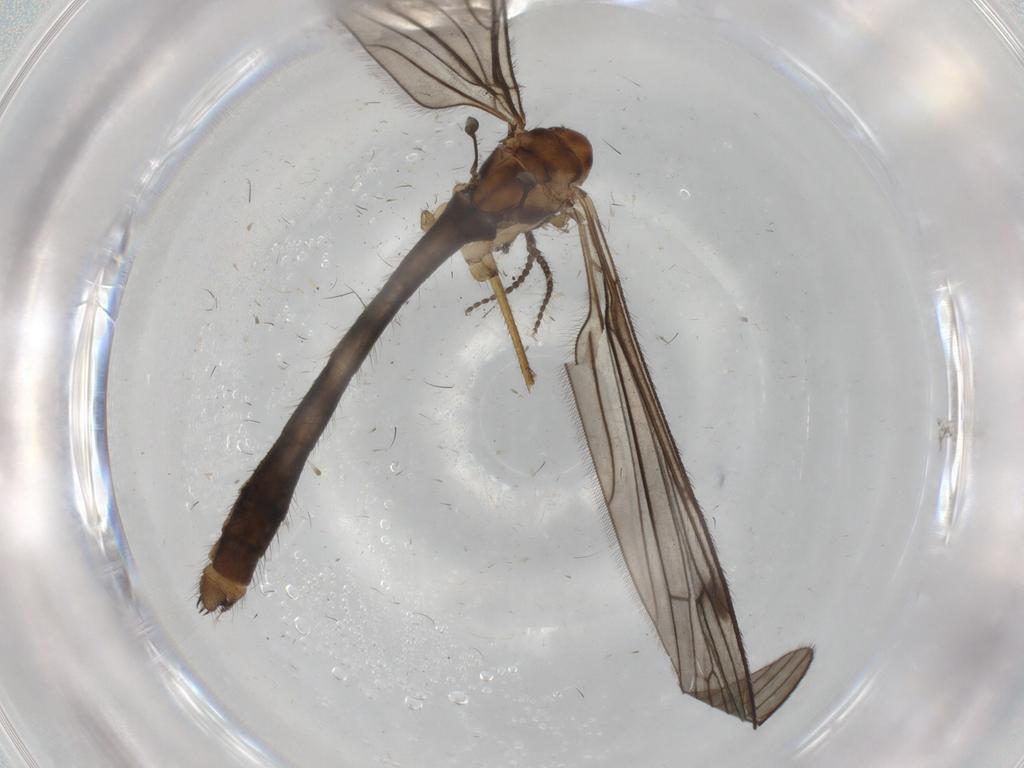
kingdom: Animalia
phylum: Arthropoda
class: Insecta
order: Diptera
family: Limoniidae
